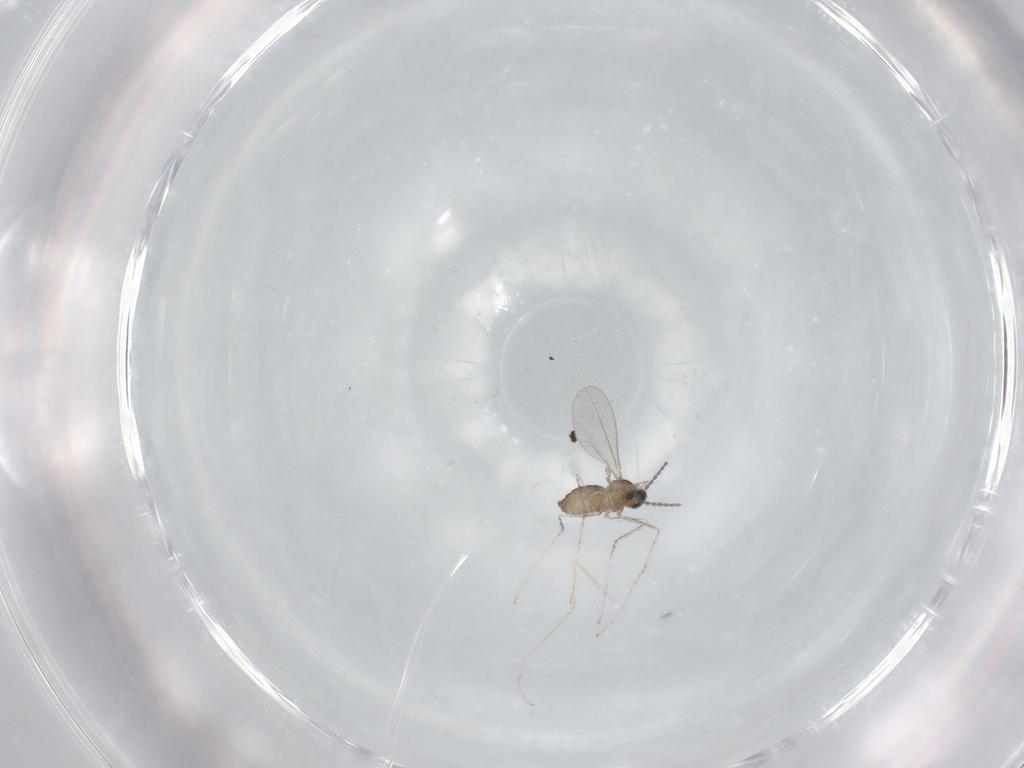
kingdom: Animalia
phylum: Arthropoda
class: Insecta
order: Diptera
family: Cecidomyiidae
